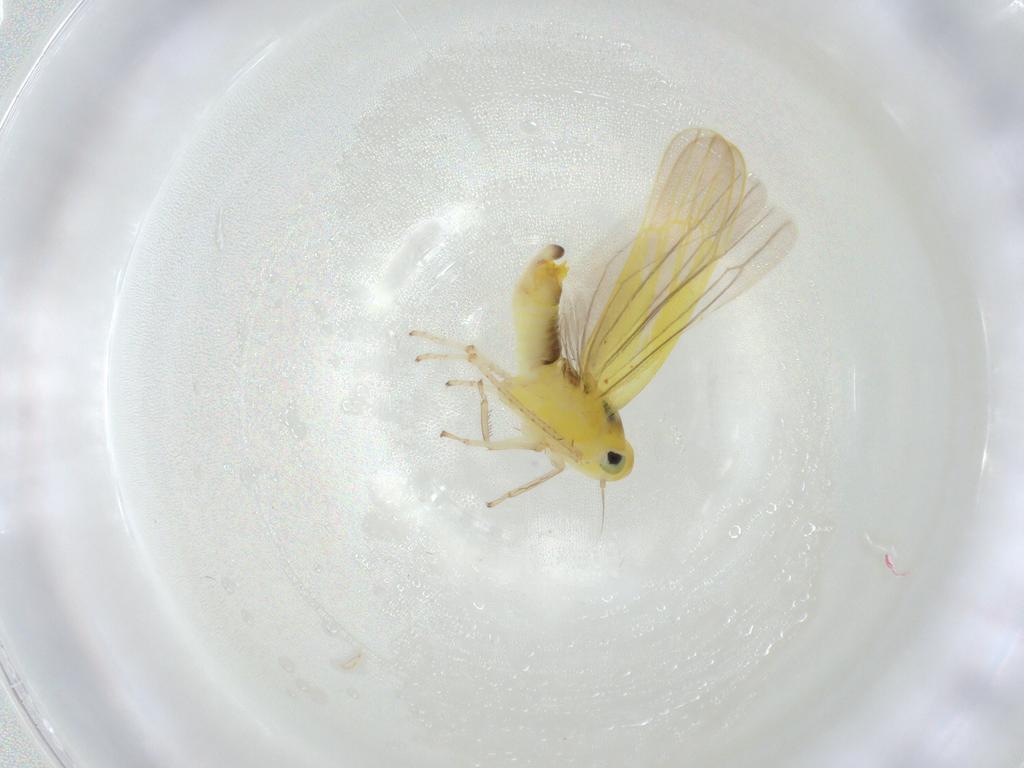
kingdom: Animalia
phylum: Arthropoda
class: Insecta
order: Hemiptera
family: Cicadellidae
